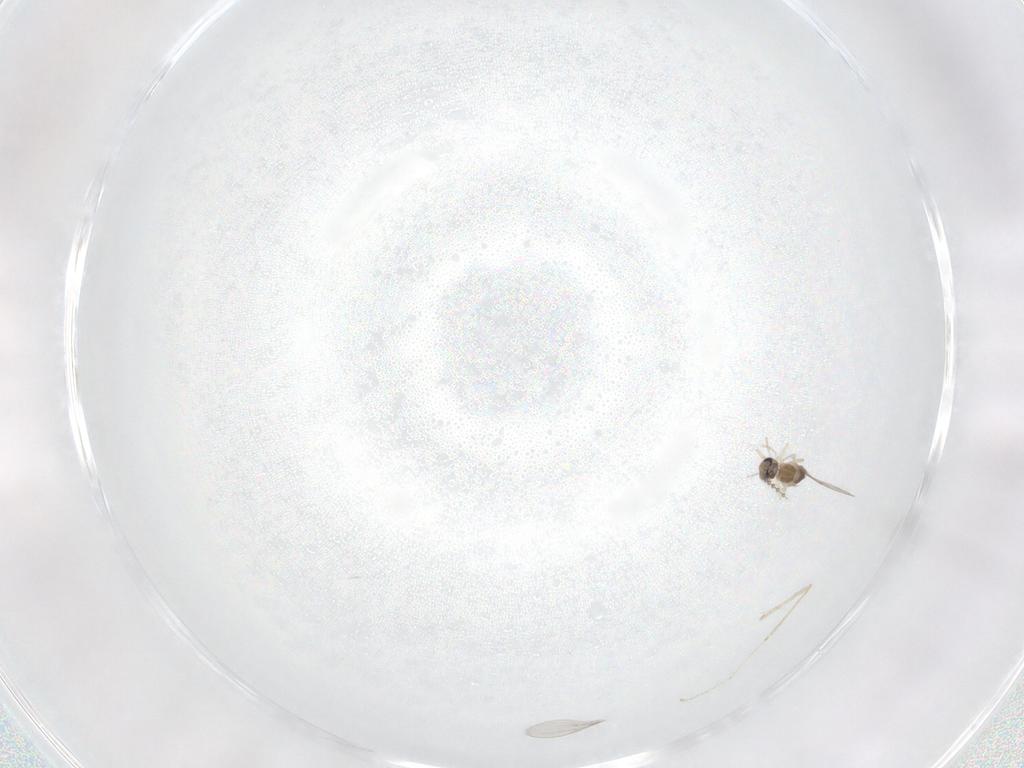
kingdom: Animalia
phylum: Arthropoda
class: Insecta
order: Diptera
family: Cecidomyiidae
